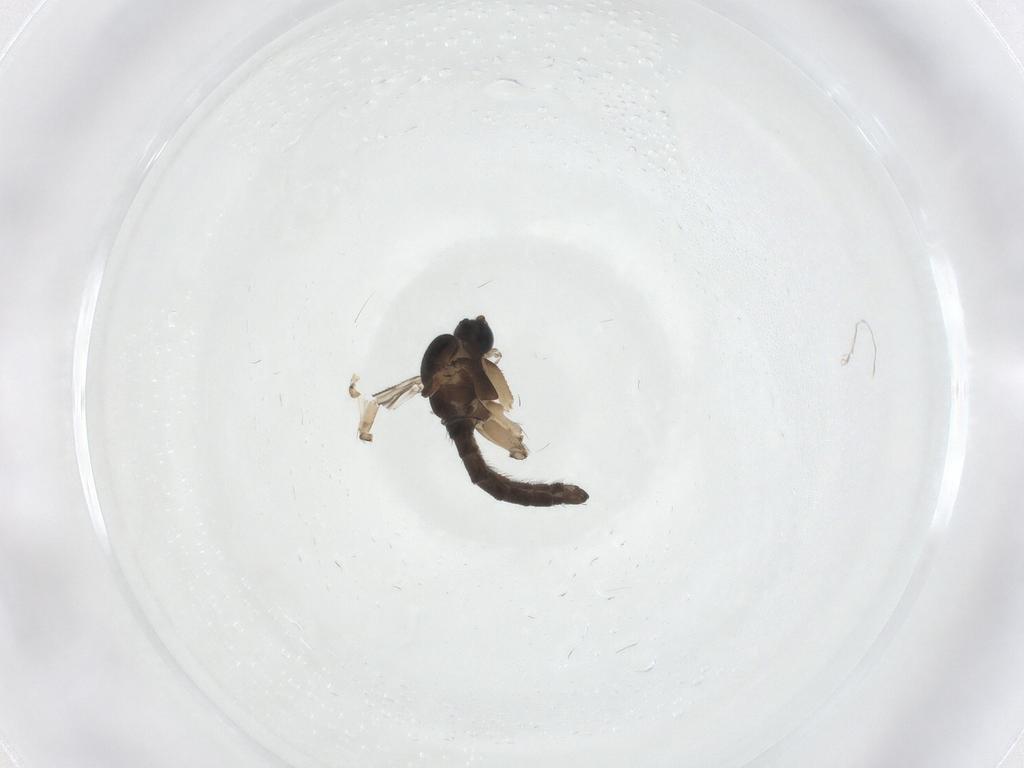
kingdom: Animalia
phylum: Arthropoda
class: Insecta
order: Diptera
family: Sciaridae
